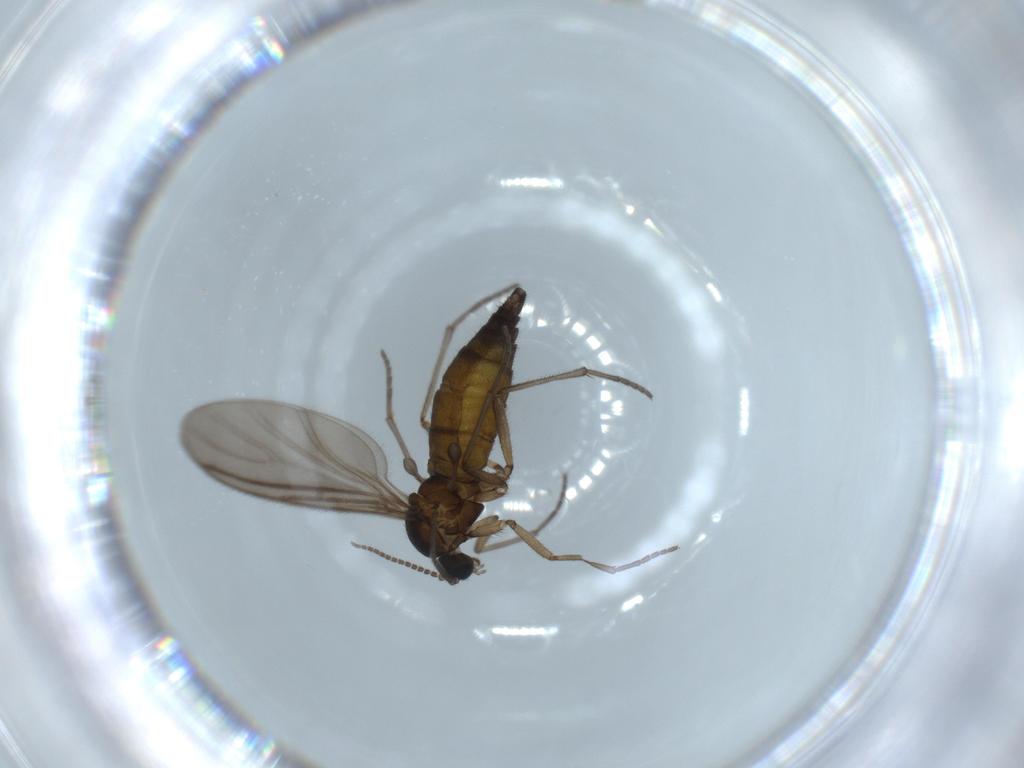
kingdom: Animalia
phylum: Arthropoda
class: Insecta
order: Diptera
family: Sciaridae
